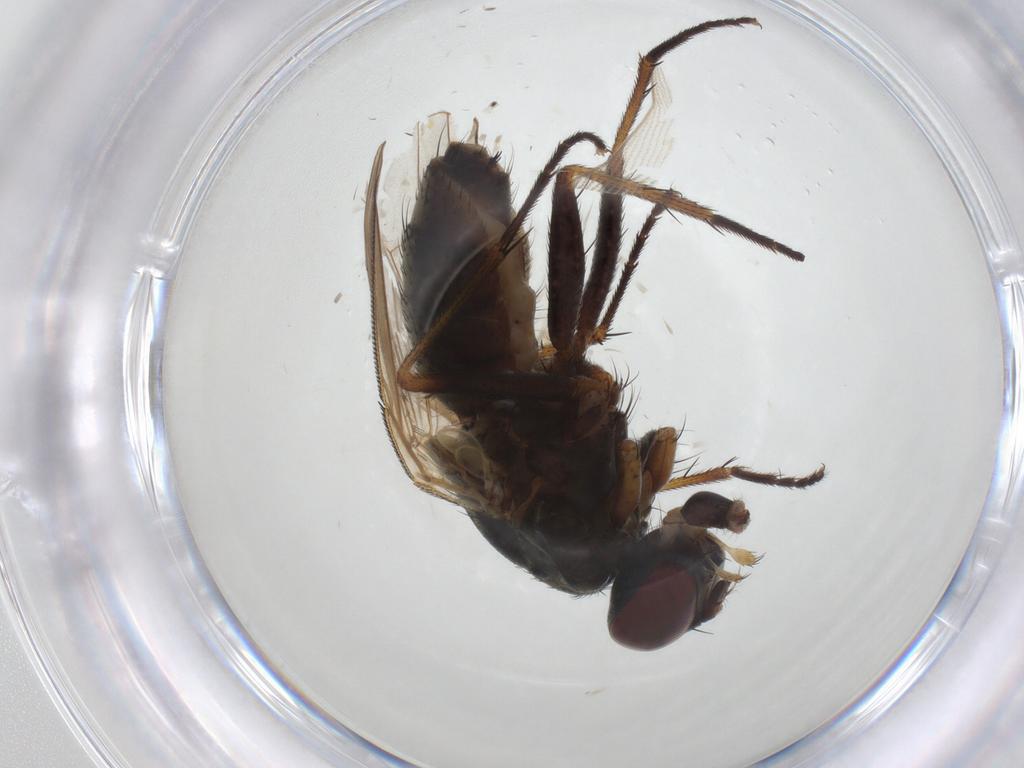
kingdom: Animalia
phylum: Arthropoda
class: Insecta
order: Diptera
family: Muscidae
